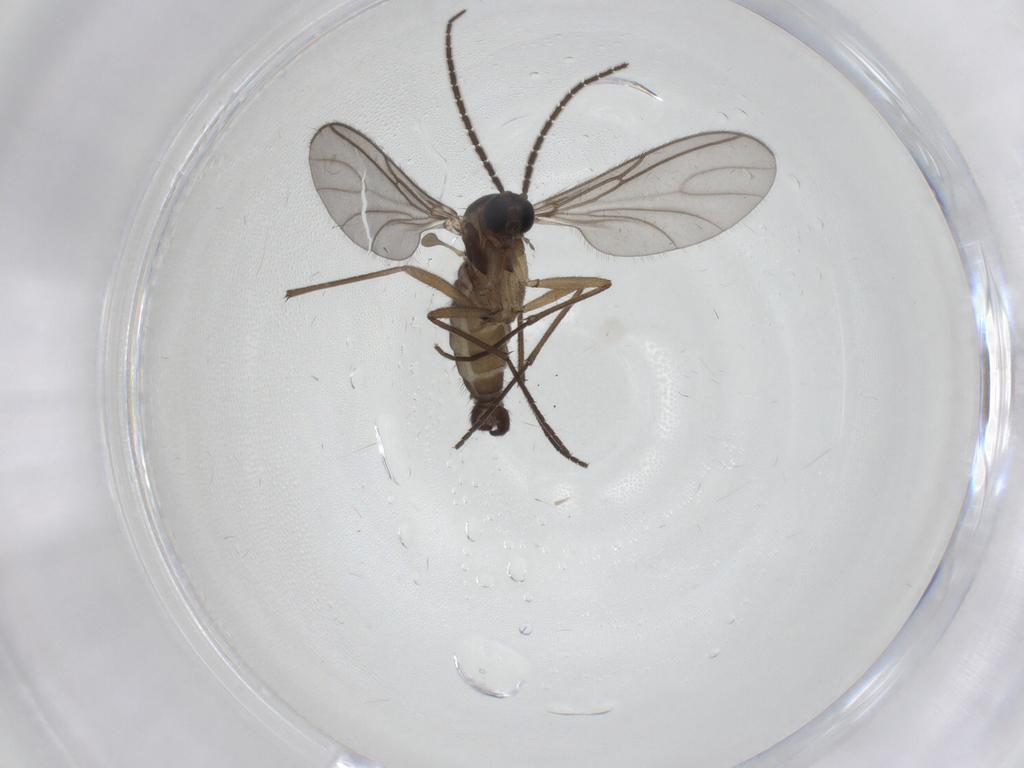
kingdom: Animalia
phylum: Arthropoda
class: Insecta
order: Diptera
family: Sciaridae
